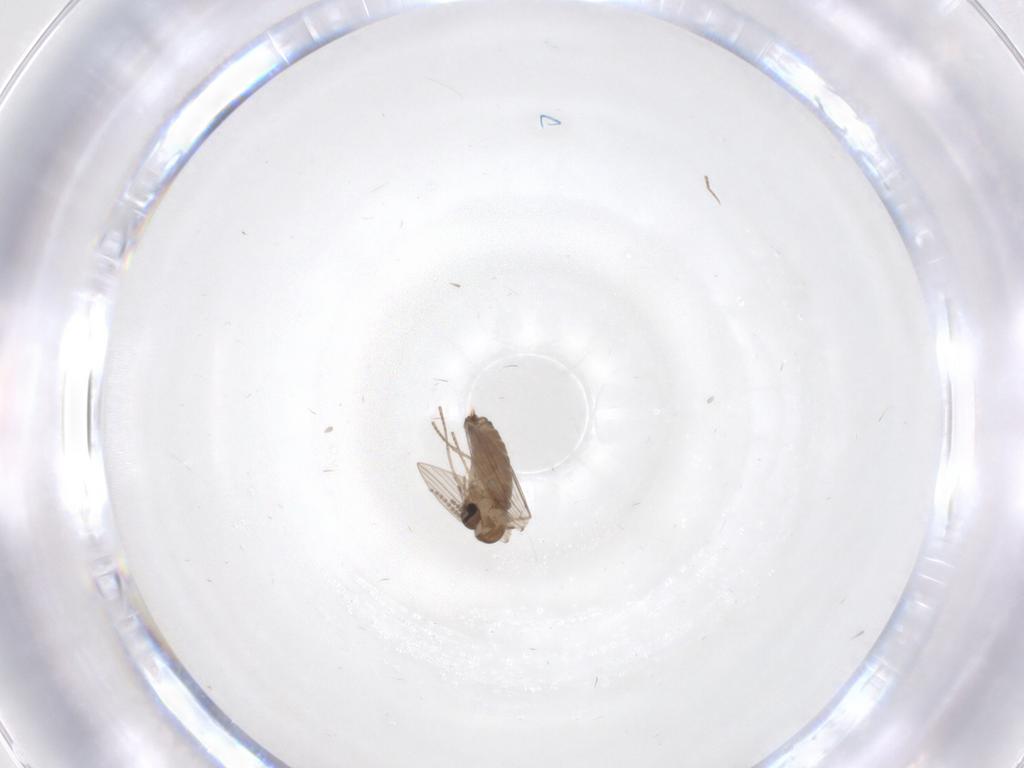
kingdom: Animalia
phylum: Arthropoda
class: Insecta
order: Diptera
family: Psychodidae
